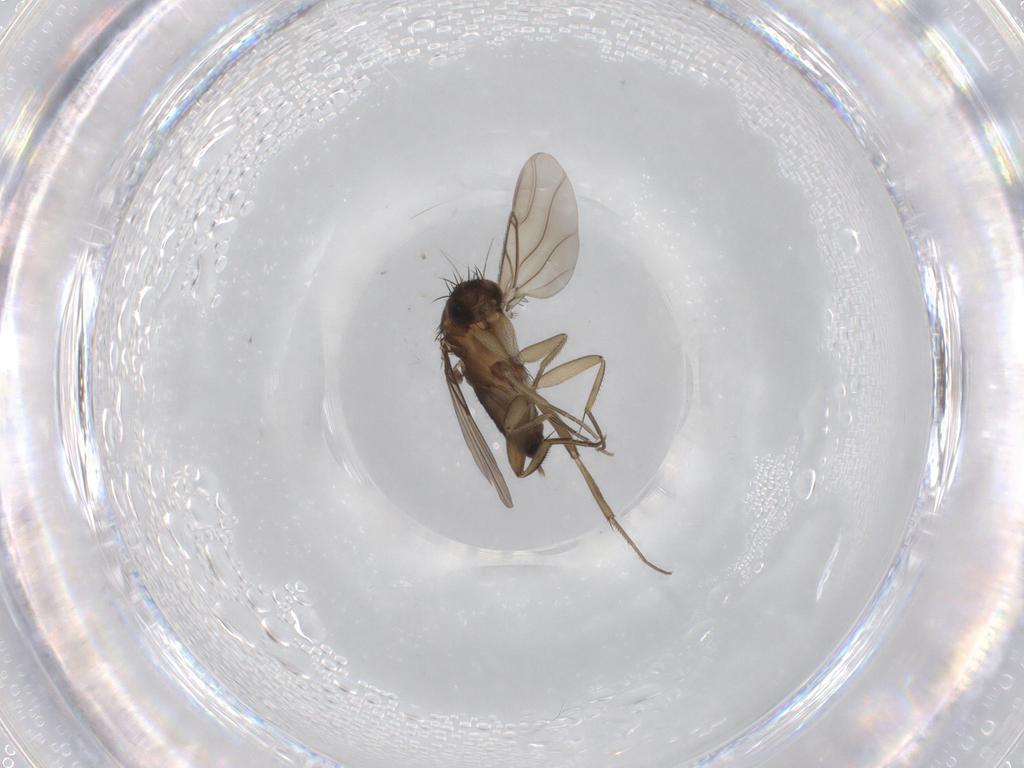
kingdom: Animalia
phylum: Arthropoda
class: Insecta
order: Diptera
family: Phoridae
